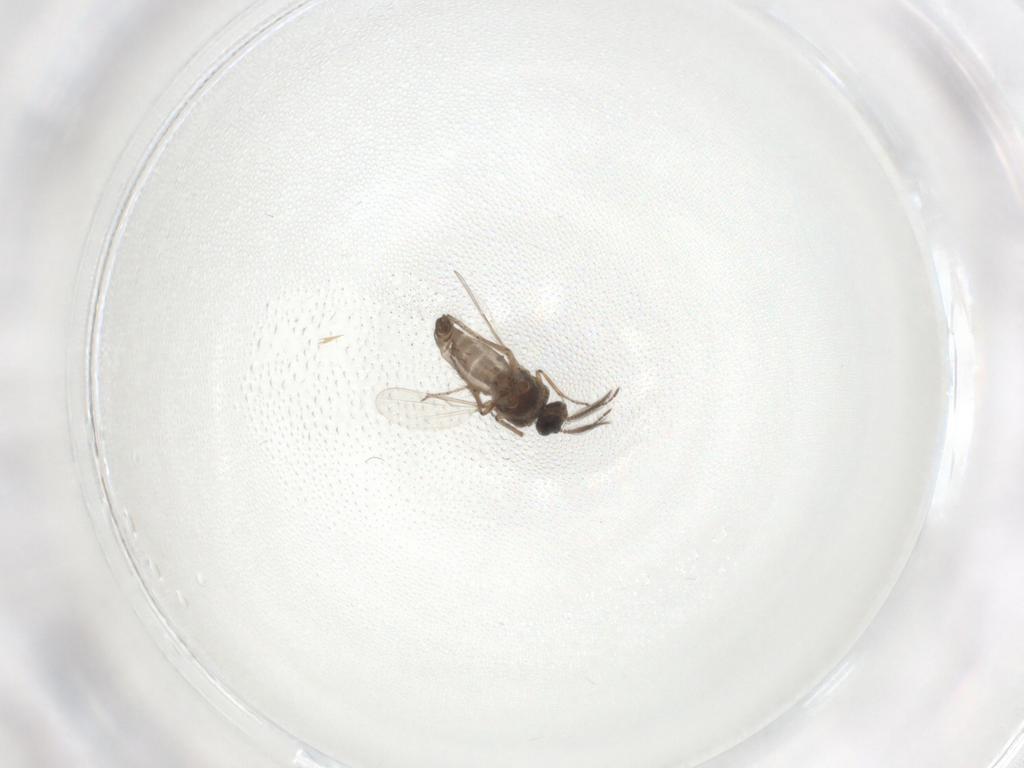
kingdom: Animalia
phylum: Arthropoda
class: Insecta
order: Diptera
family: Ceratopogonidae
